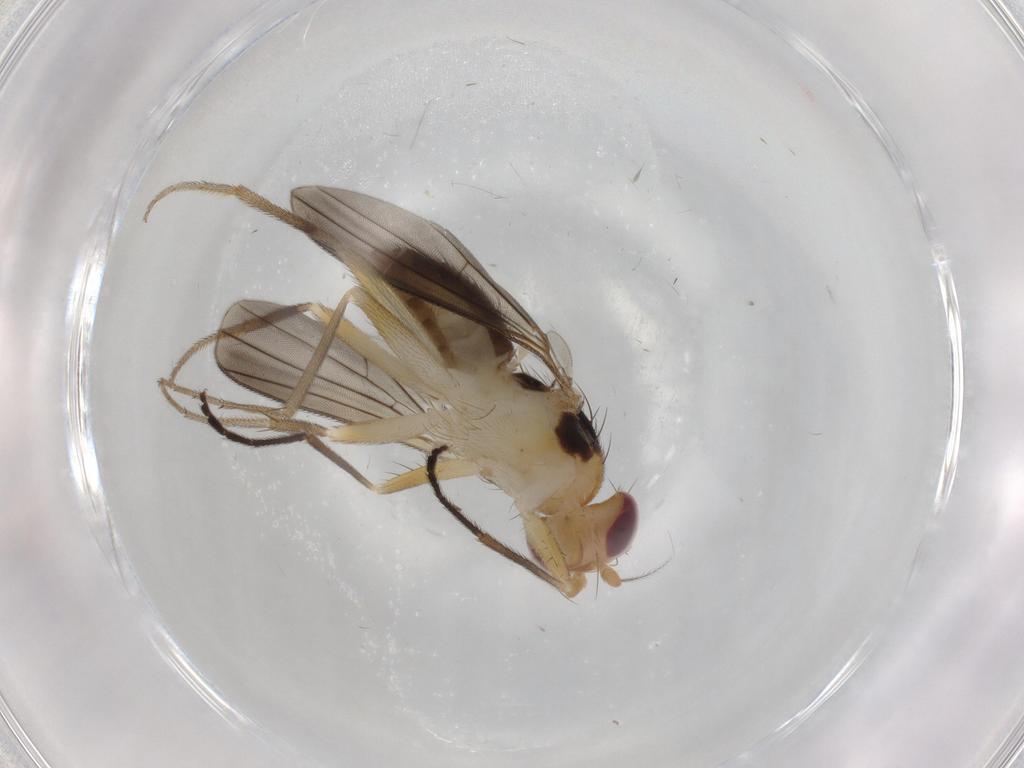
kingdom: Animalia
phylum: Arthropoda
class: Insecta
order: Diptera
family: Clusiidae
